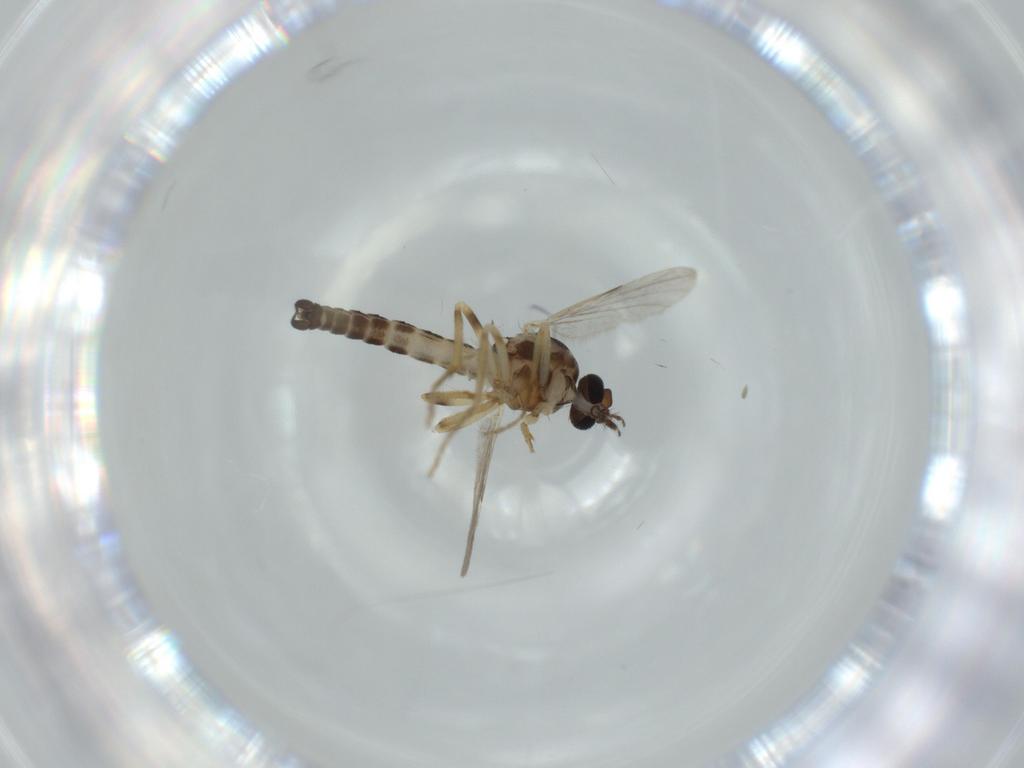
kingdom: Animalia
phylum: Arthropoda
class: Insecta
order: Diptera
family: Ceratopogonidae
